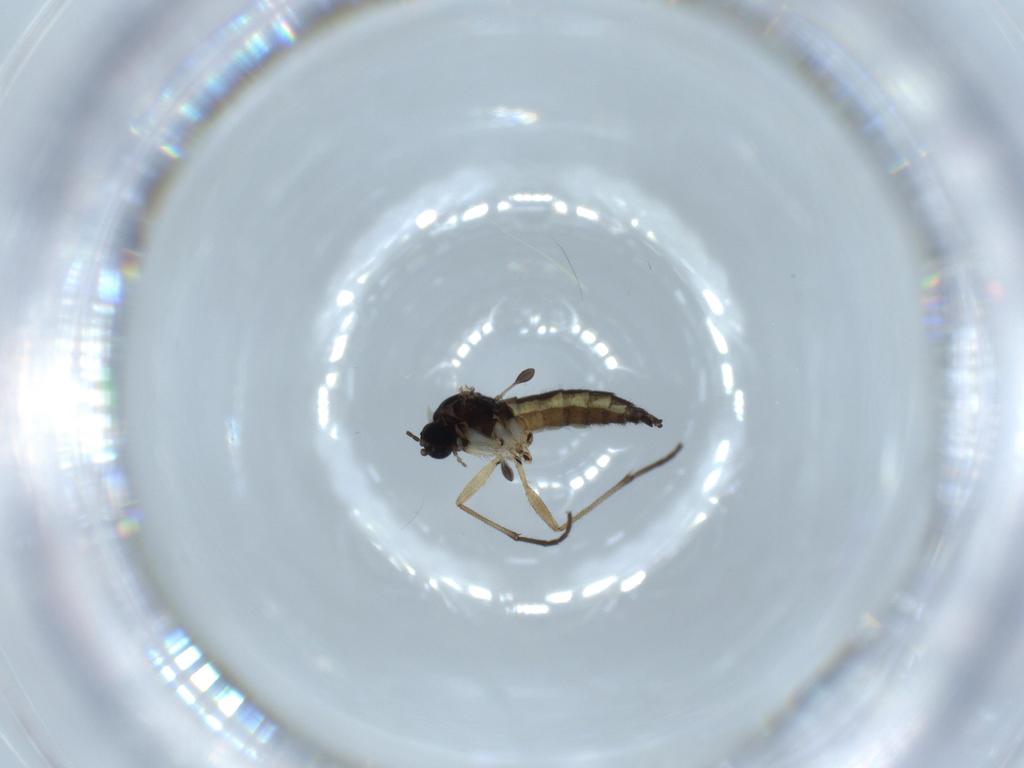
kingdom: Animalia
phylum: Arthropoda
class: Insecta
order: Diptera
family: Sciaridae
